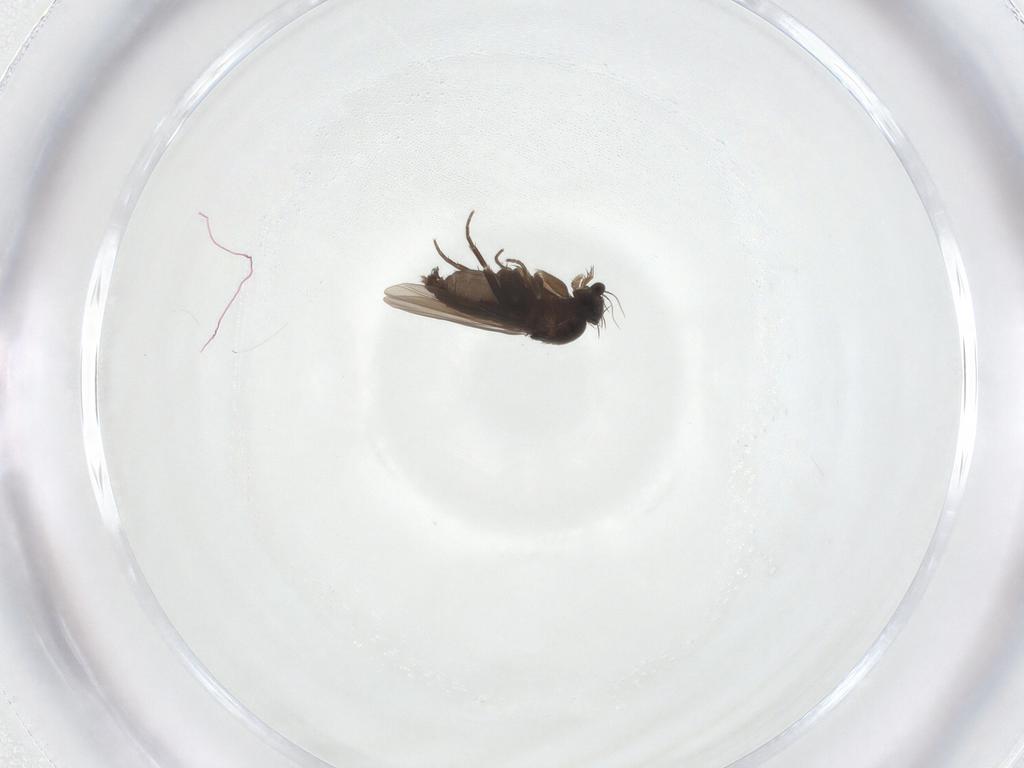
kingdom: Animalia
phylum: Arthropoda
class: Insecta
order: Diptera
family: Phoridae
